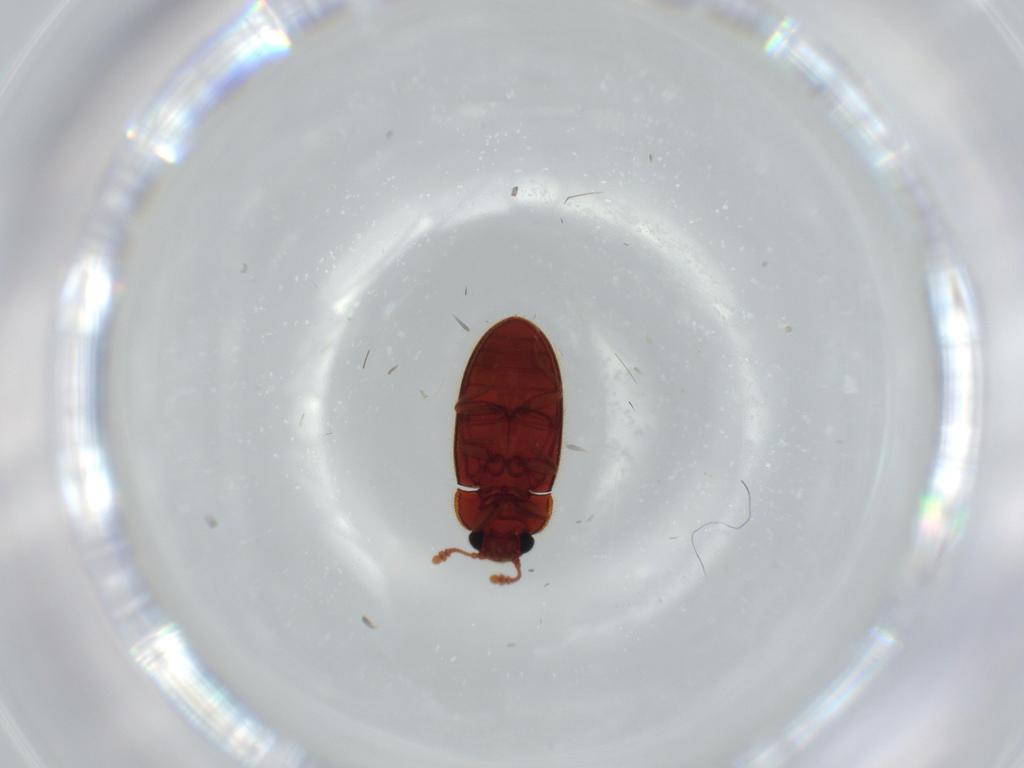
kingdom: Animalia
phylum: Arthropoda
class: Insecta
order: Coleoptera
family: Biphyllidae
